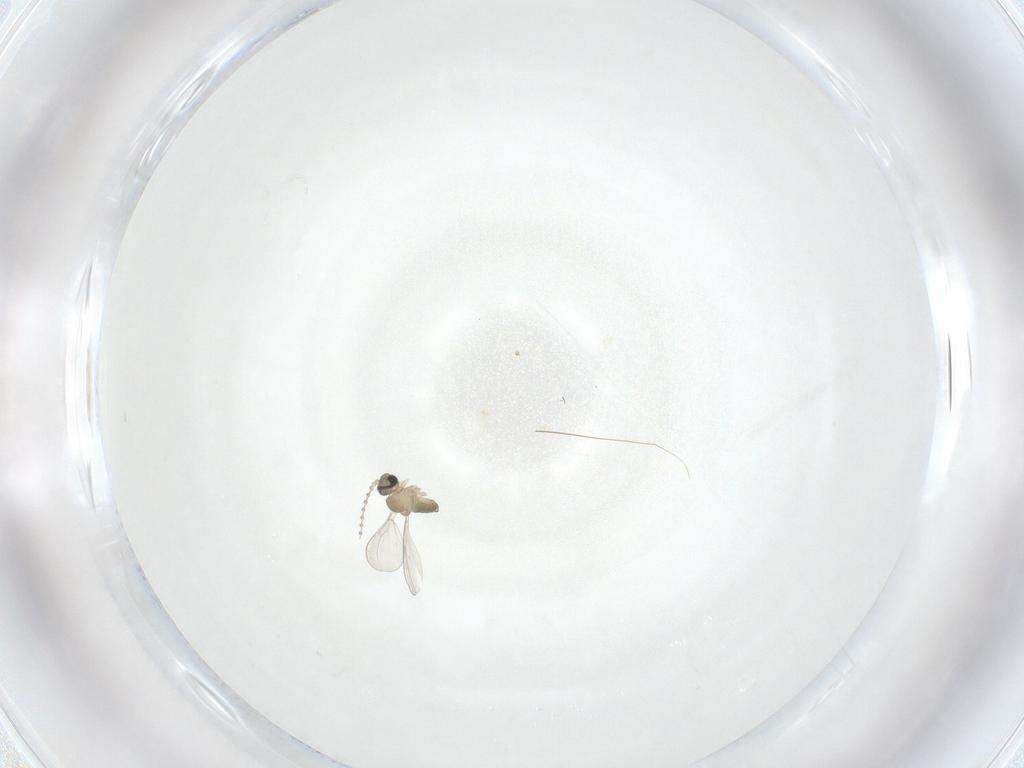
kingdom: Animalia
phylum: Arthropoda
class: Insecta
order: Diptera
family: Cecidomyiidae
